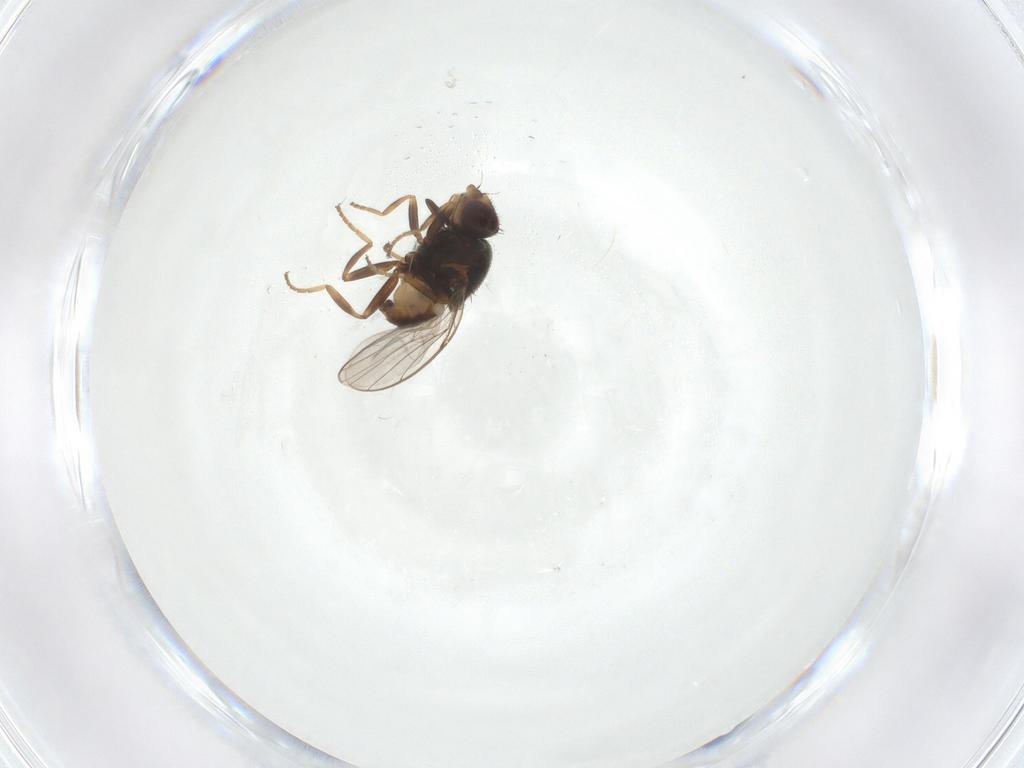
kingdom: Animalia
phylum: Arthropoda
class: Insecta
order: Diptera
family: Chloropidae
